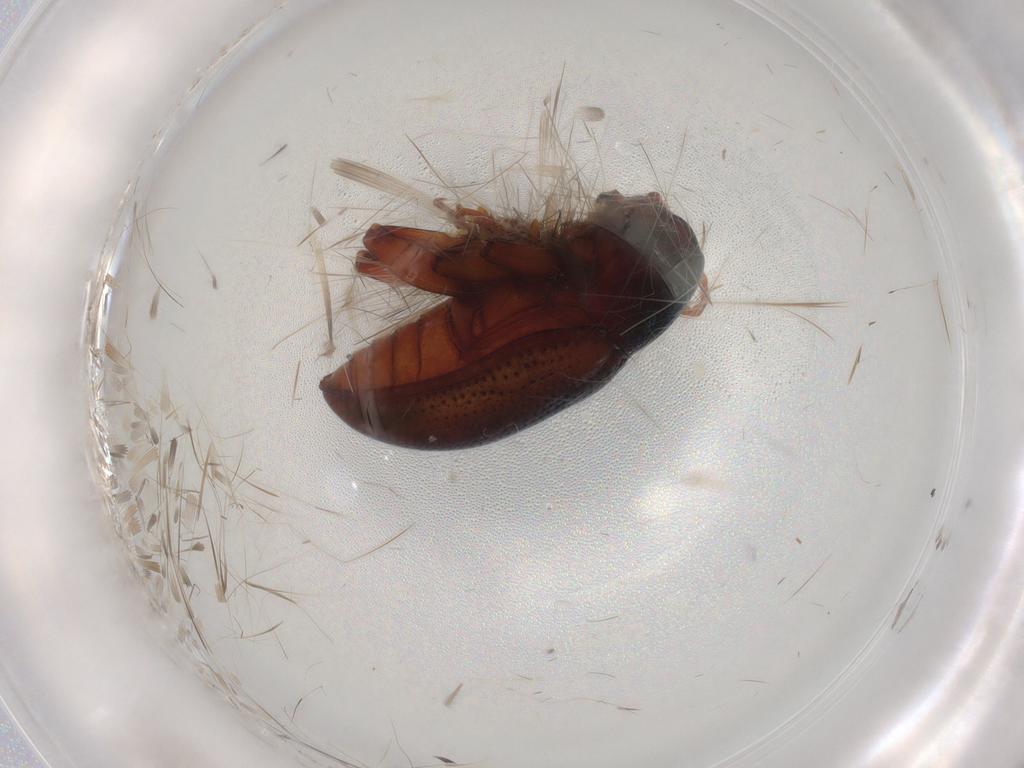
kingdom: Animalia
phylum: Arthropoda
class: Insecta
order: Coleoptera
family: Chrysomelidae
